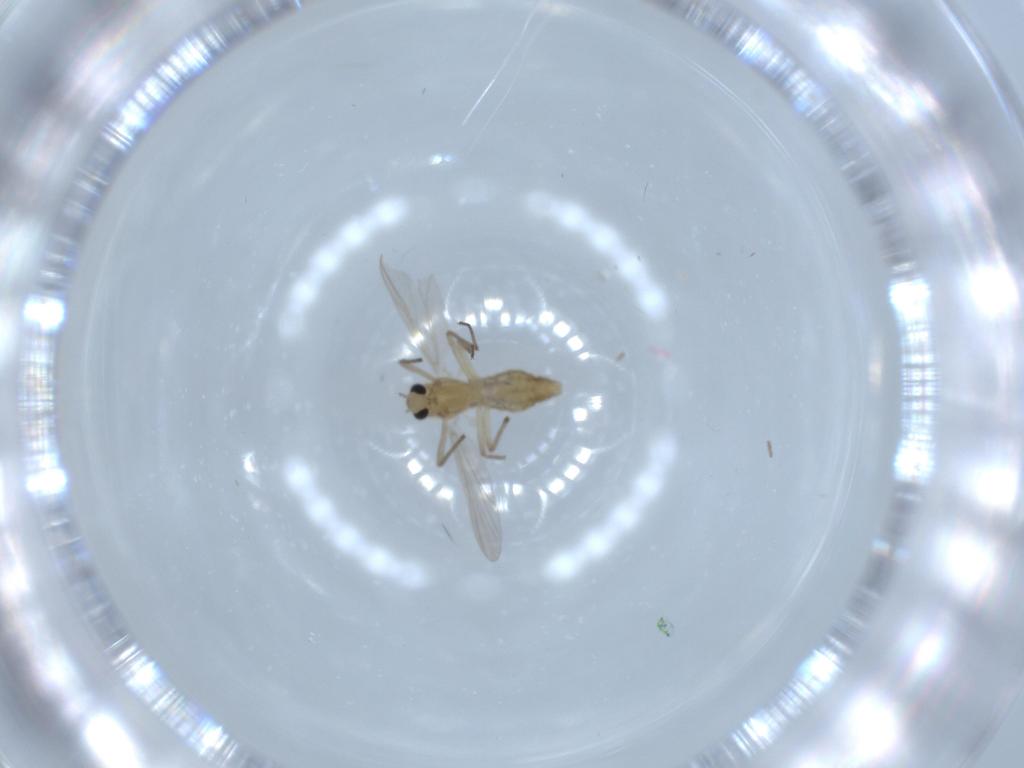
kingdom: Animalia
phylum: Arthropoda
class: Insecta
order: Diptera
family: Chironomidae
